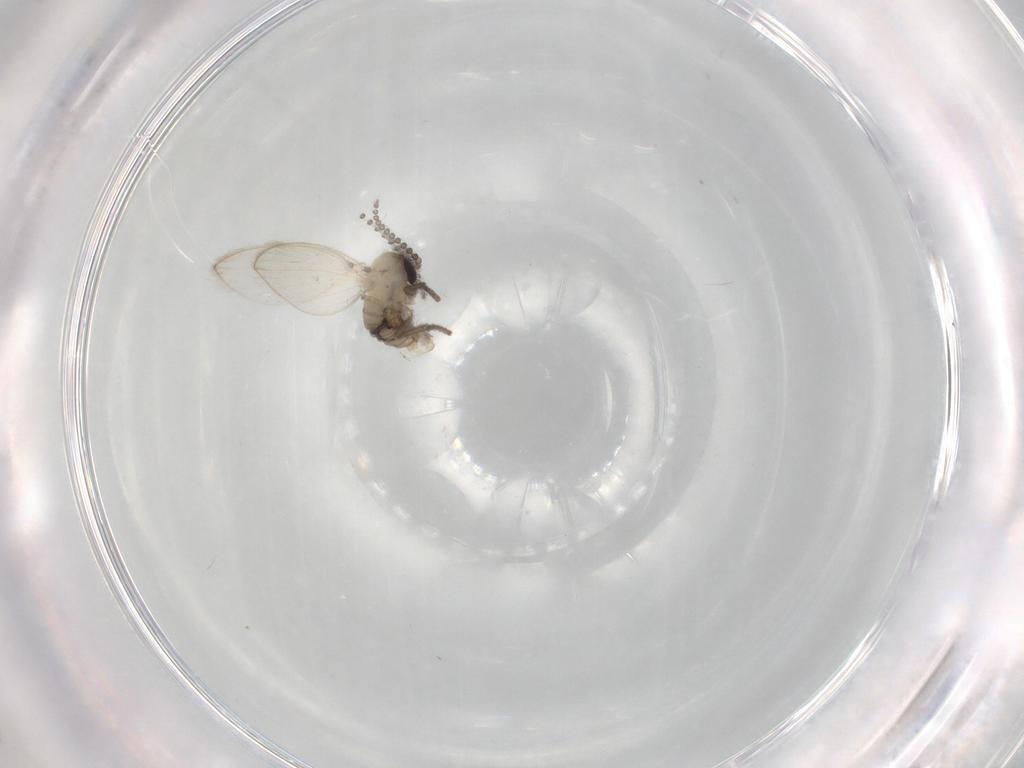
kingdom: Animalia
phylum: Arthropoda
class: Insecta
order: Diptera
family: Psychodidae
